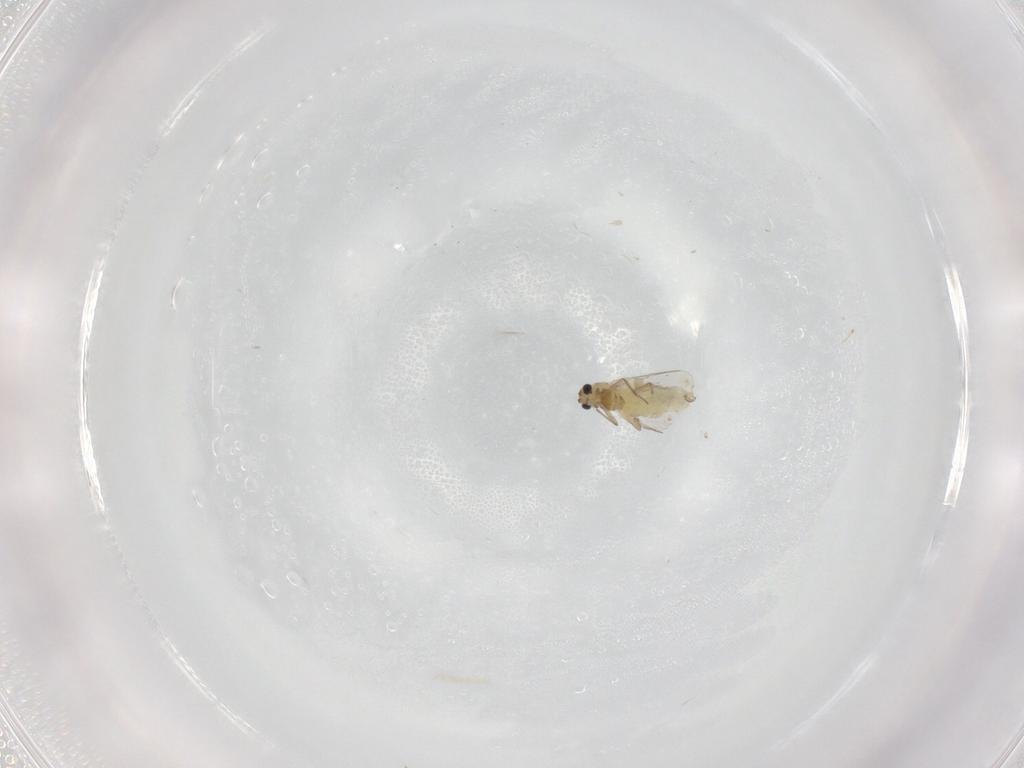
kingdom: Animalia
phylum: Arthropoda
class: Insecta
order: Diptera
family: Chironomidae
